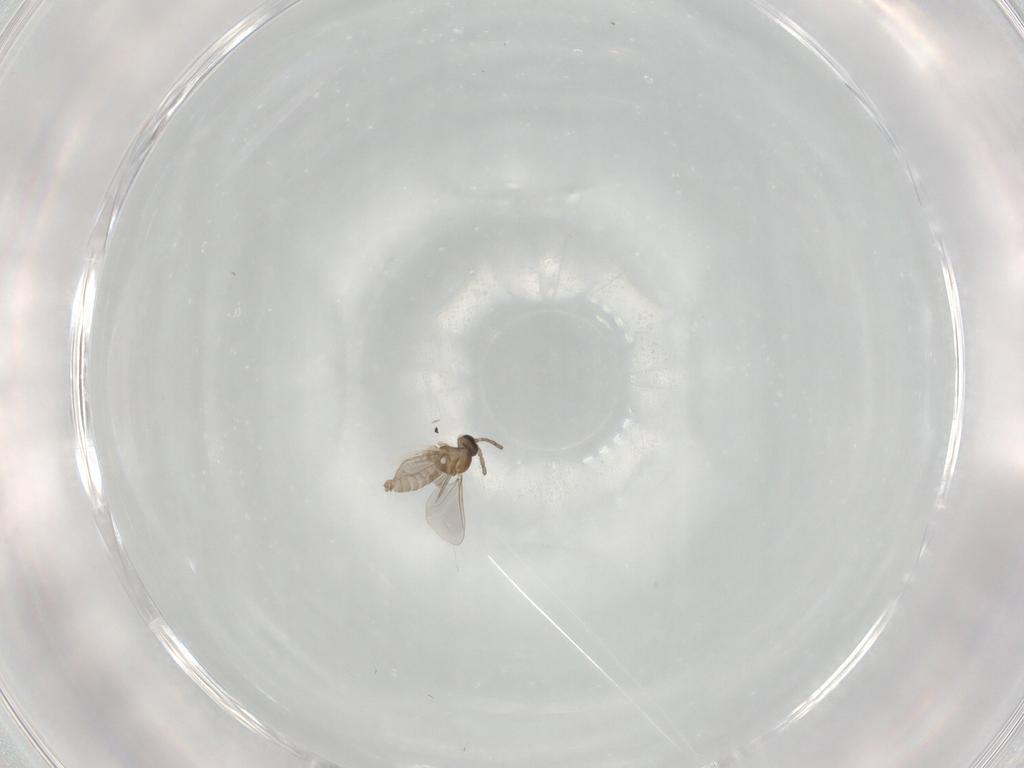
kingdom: Animalia
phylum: Arthropoda
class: Insecta
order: Diptera
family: Cecidomyiidae
